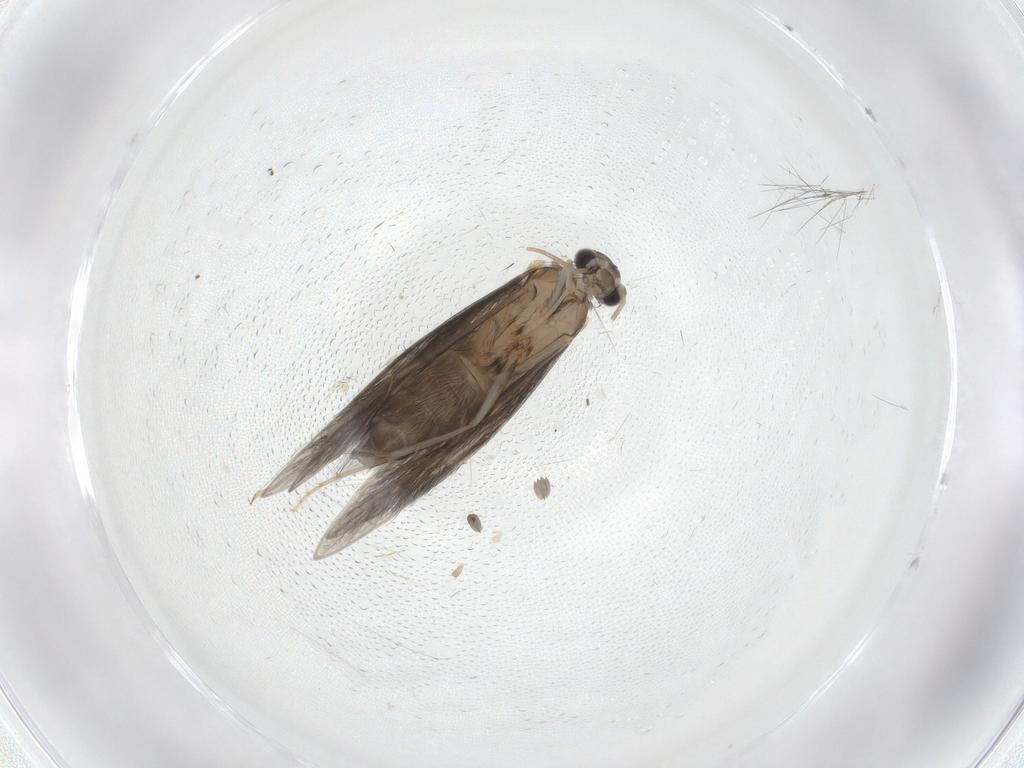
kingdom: Animalia
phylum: Arthropoda
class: Insecta
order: Trichoptera
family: Hydroptilidae
